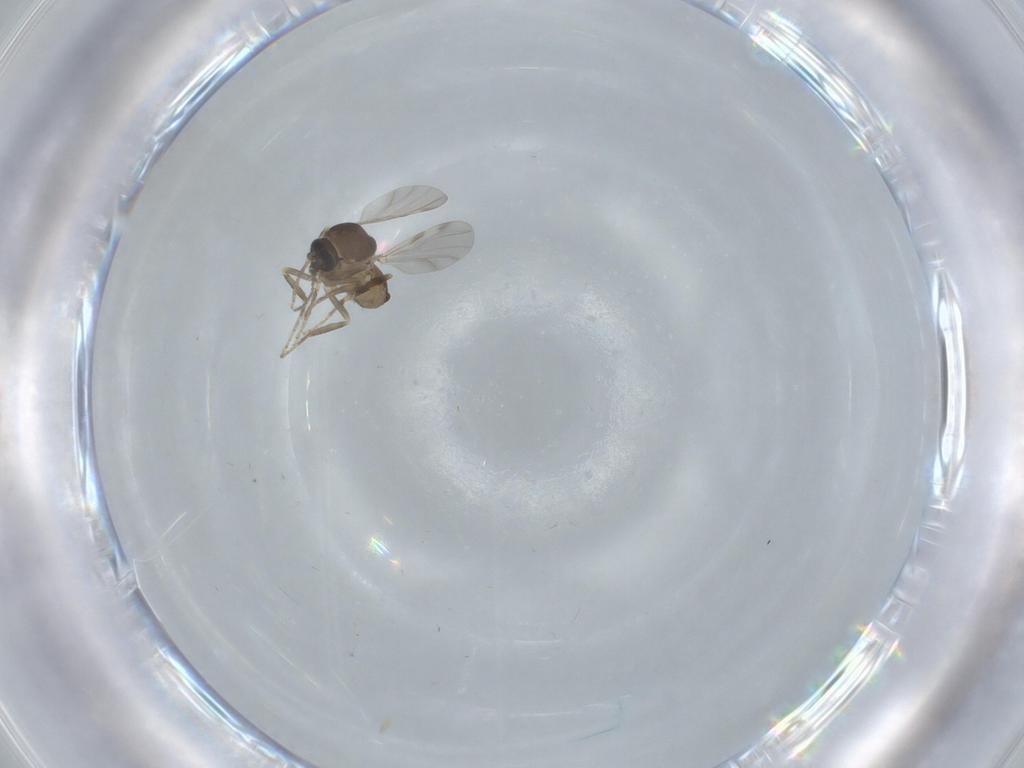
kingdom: Animalia
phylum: Arthropoda
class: Insecta
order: Diptera
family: Ceratopogonidae
